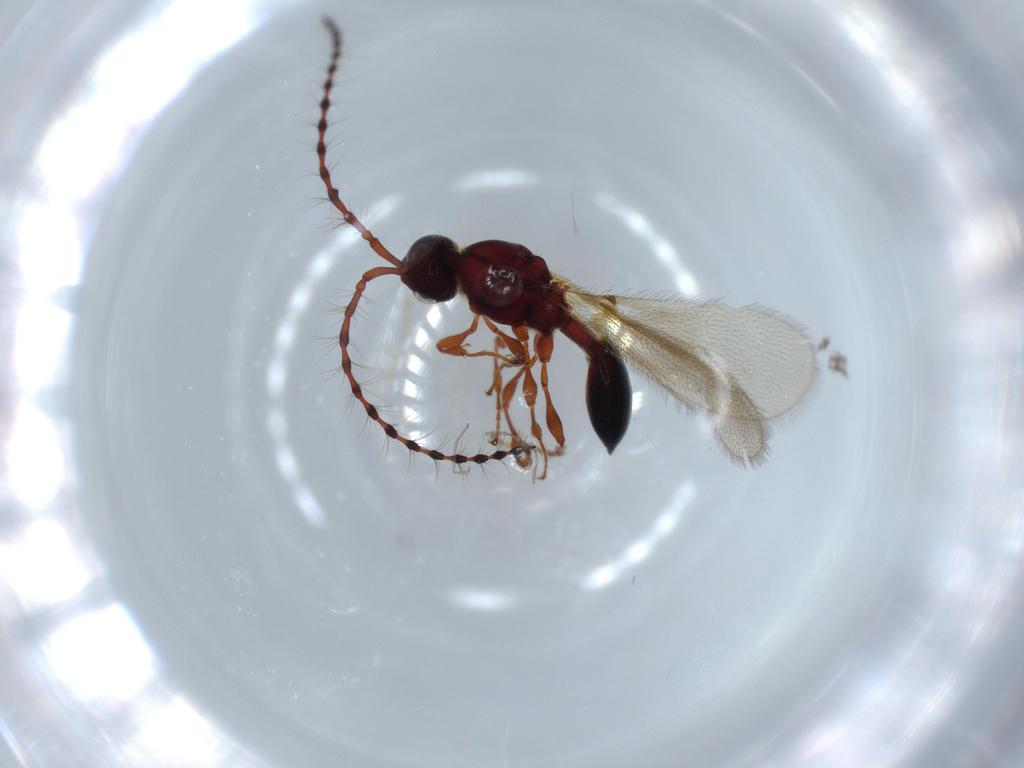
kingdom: Animalia
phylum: Arthropoda
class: Insecta
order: Hymenoptera
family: Diapriidae
